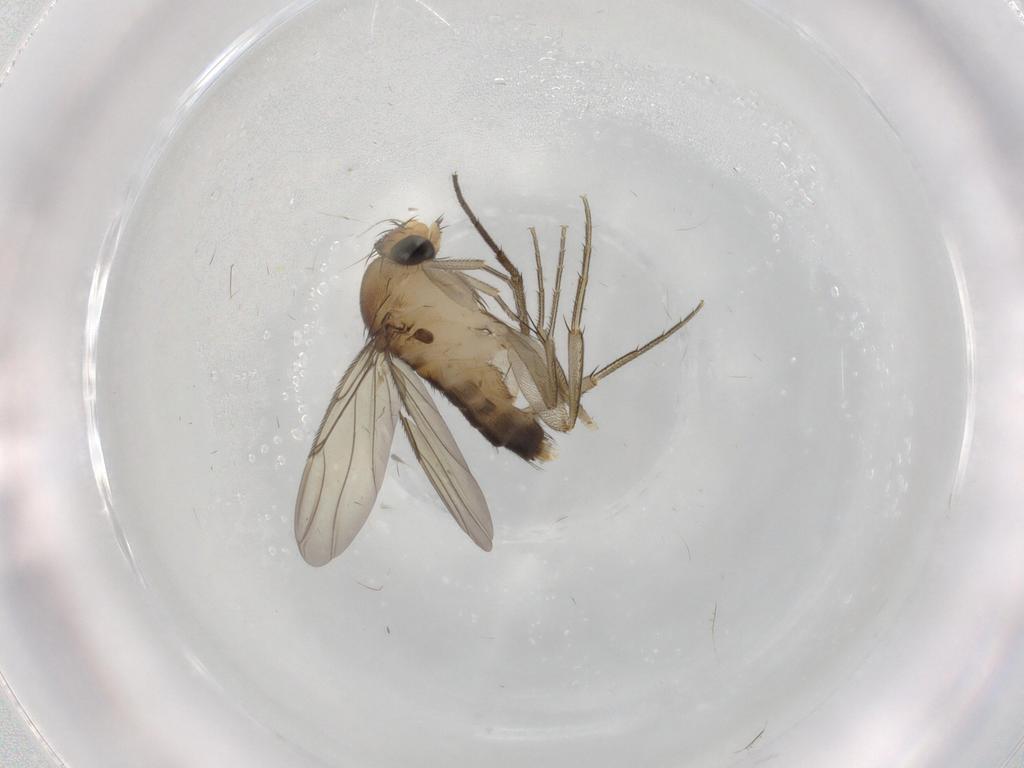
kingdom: Animalia
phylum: Arthropoda
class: Insecta
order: Diptera
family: Phoridae
